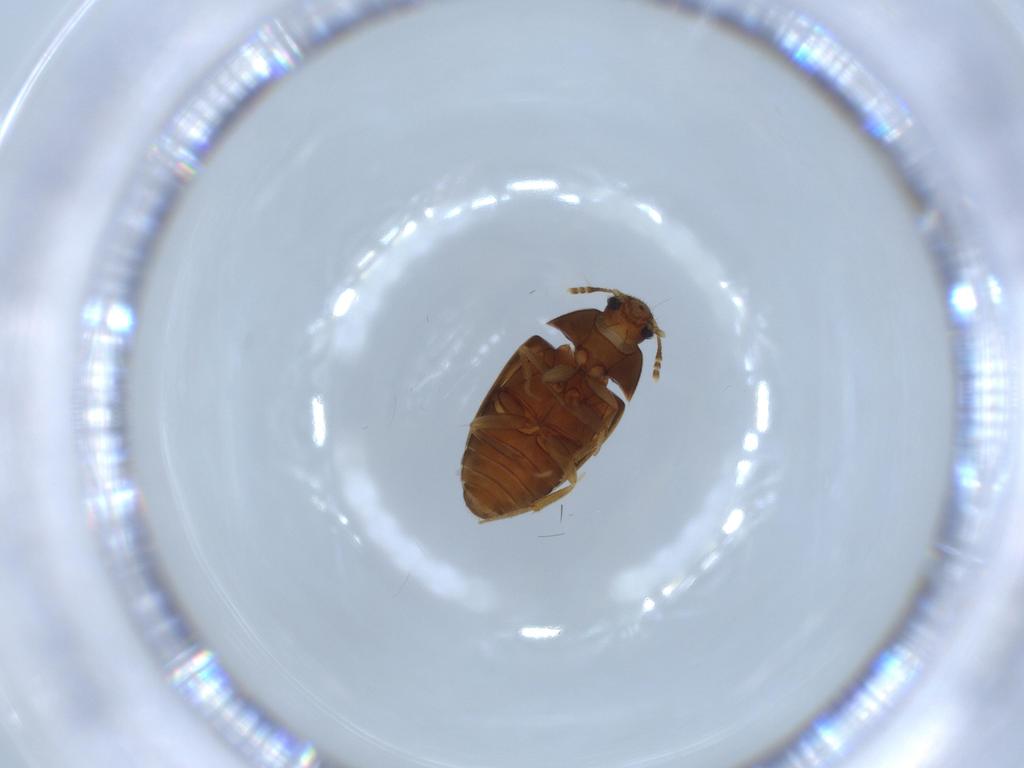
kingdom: Animalia
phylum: Arthropoda
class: Insecta
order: Coleoptera
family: Mycetophagidae
